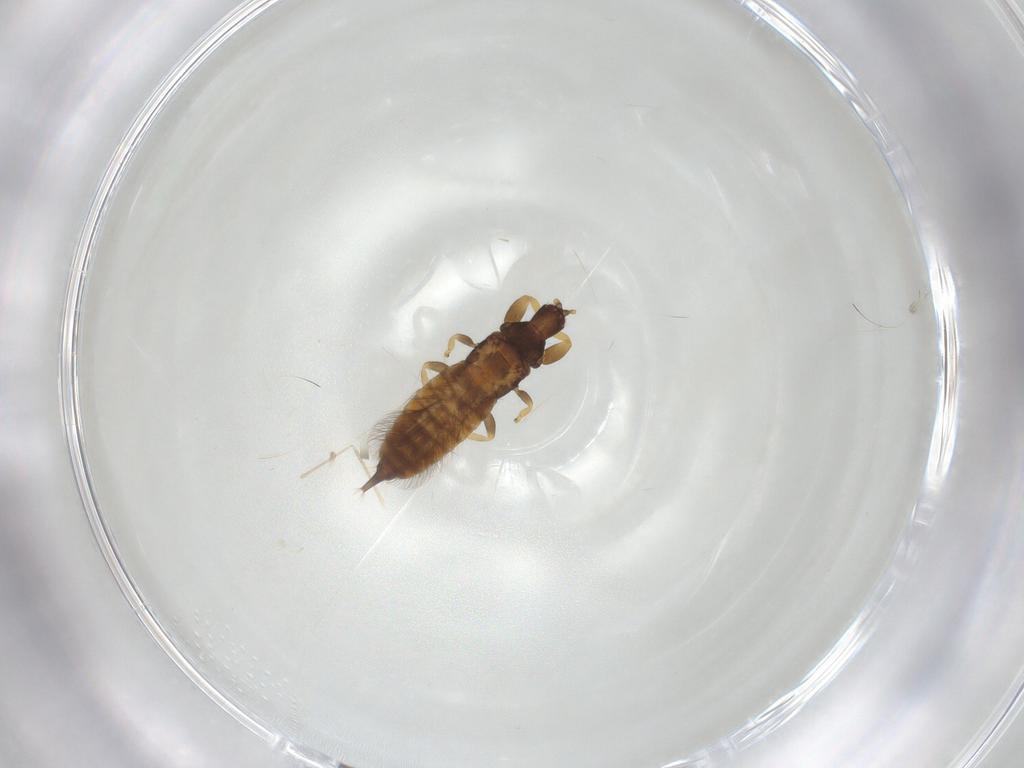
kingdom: Animalia
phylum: Arthropoda
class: Insecta
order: Thysanoptera
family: Phlaeothripidae
